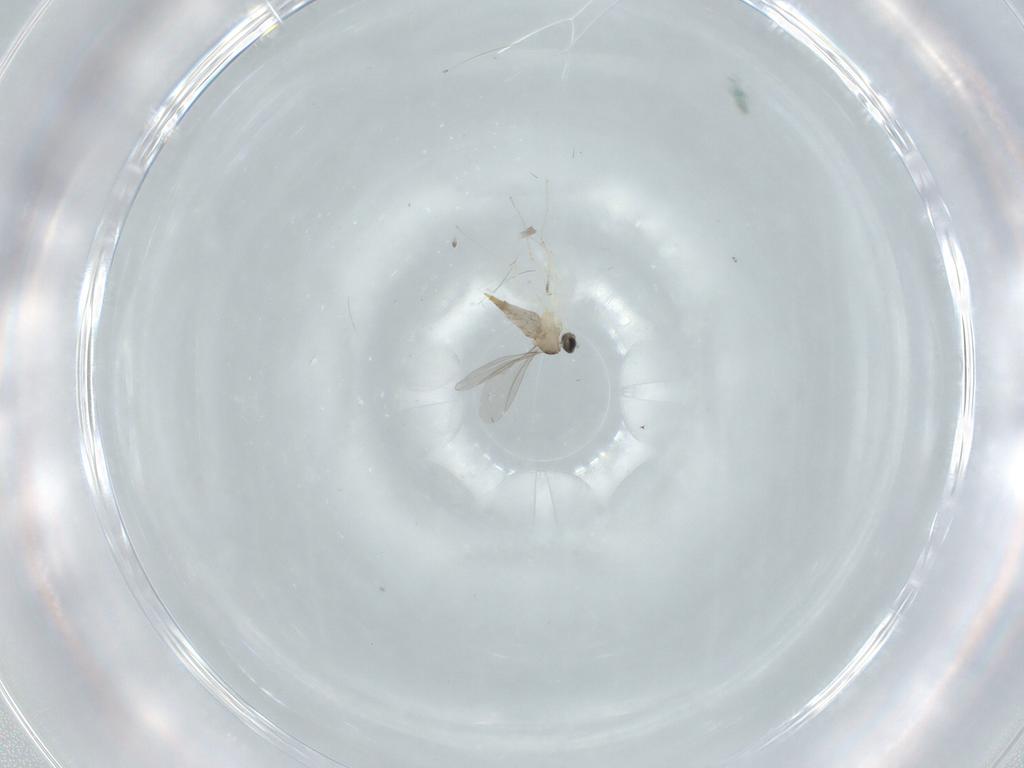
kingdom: Animalia
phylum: Arthropoda
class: Insecta
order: Diptera
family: Cecidomyiidae
